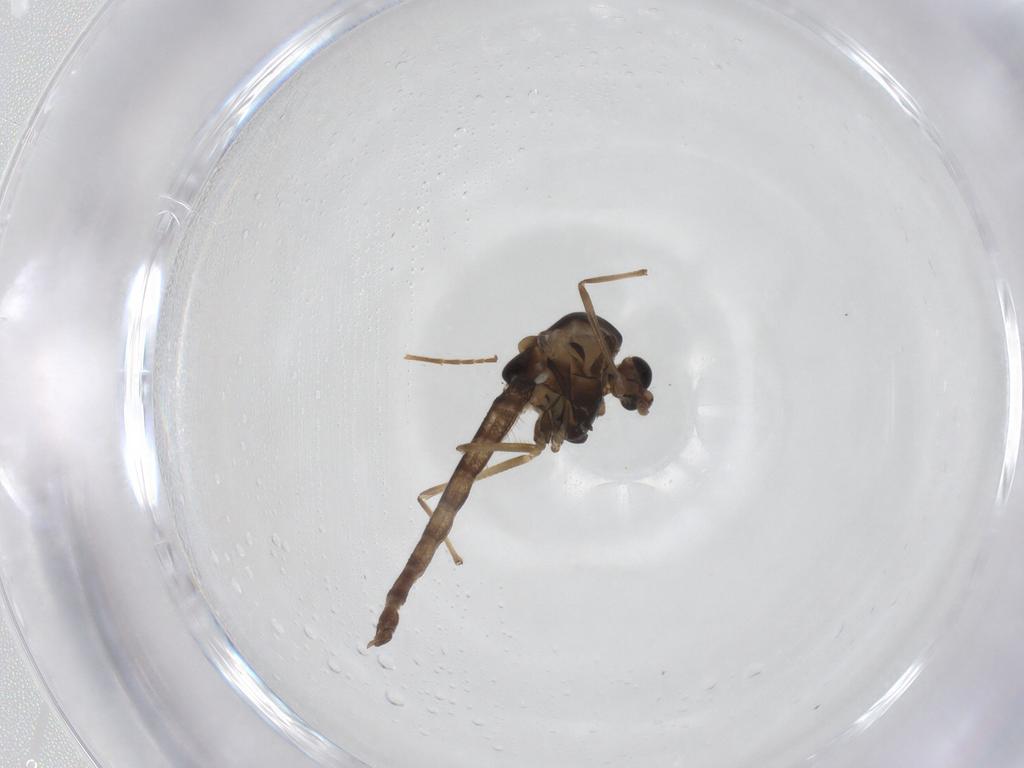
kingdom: Animalia
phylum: Arthropoda
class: Insecta
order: Diptera
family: Chironomidae
